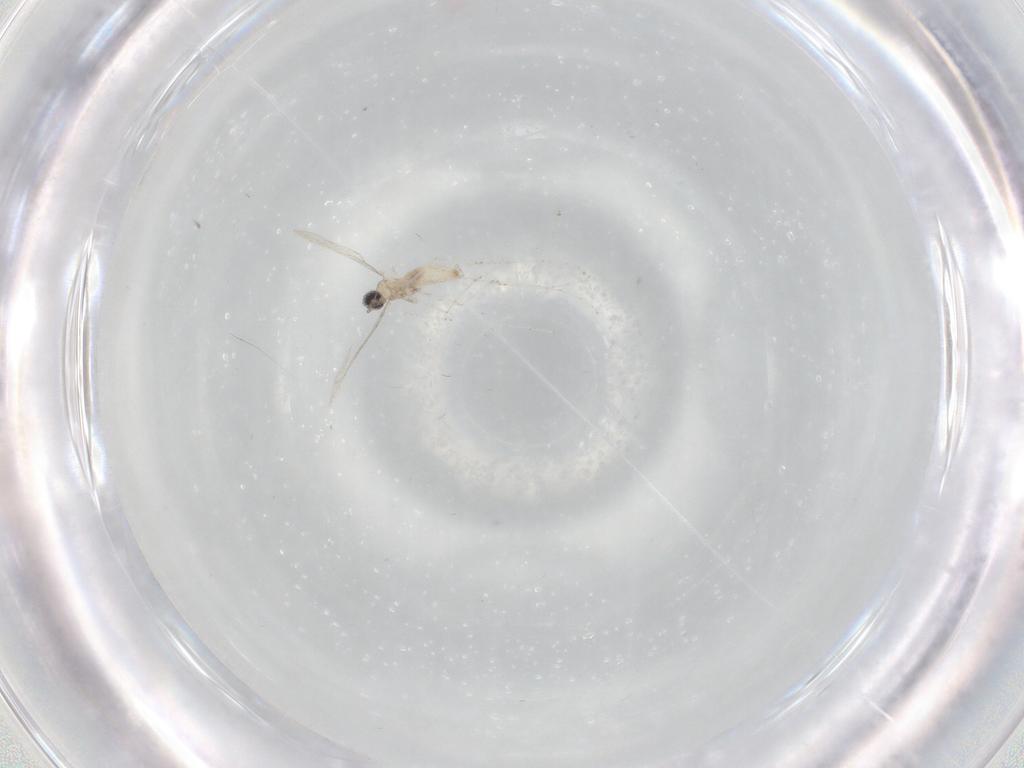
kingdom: Animalia
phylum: Arthropoda
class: Insecta
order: Diptera
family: Cecidomyiidae
